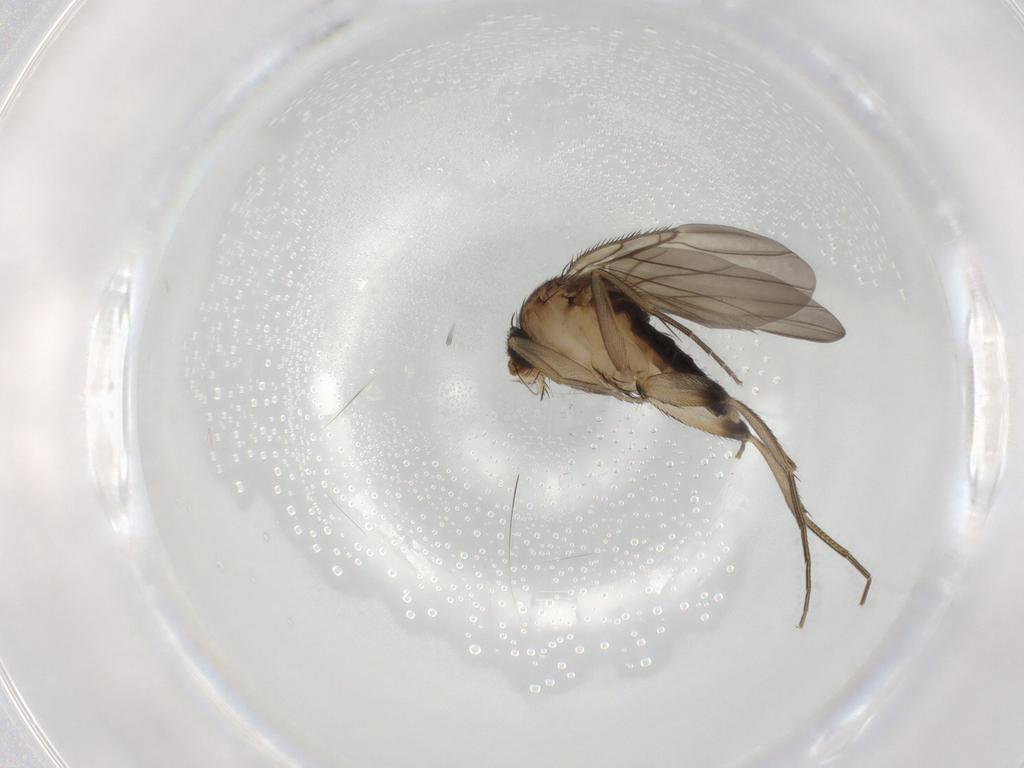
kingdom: Animalia
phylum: Arthropoda
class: Insecta
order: Diptera
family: Phoridae
